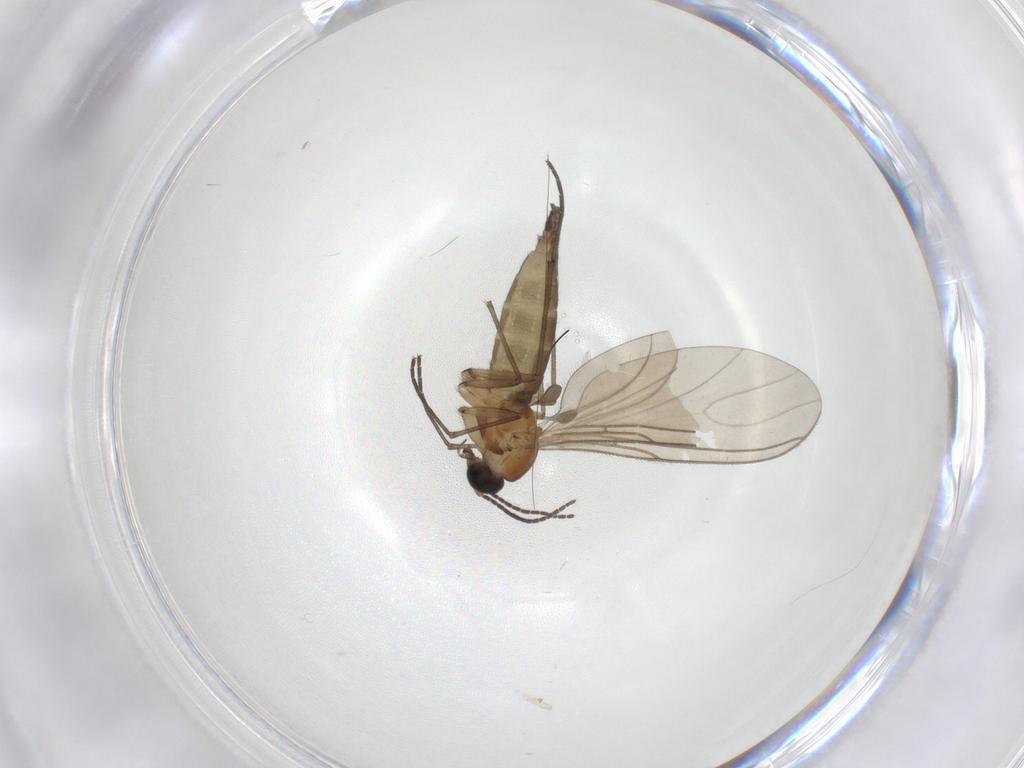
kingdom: Animalia
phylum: Arthropoda
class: Insecta
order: Diptera
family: Sciaridae
